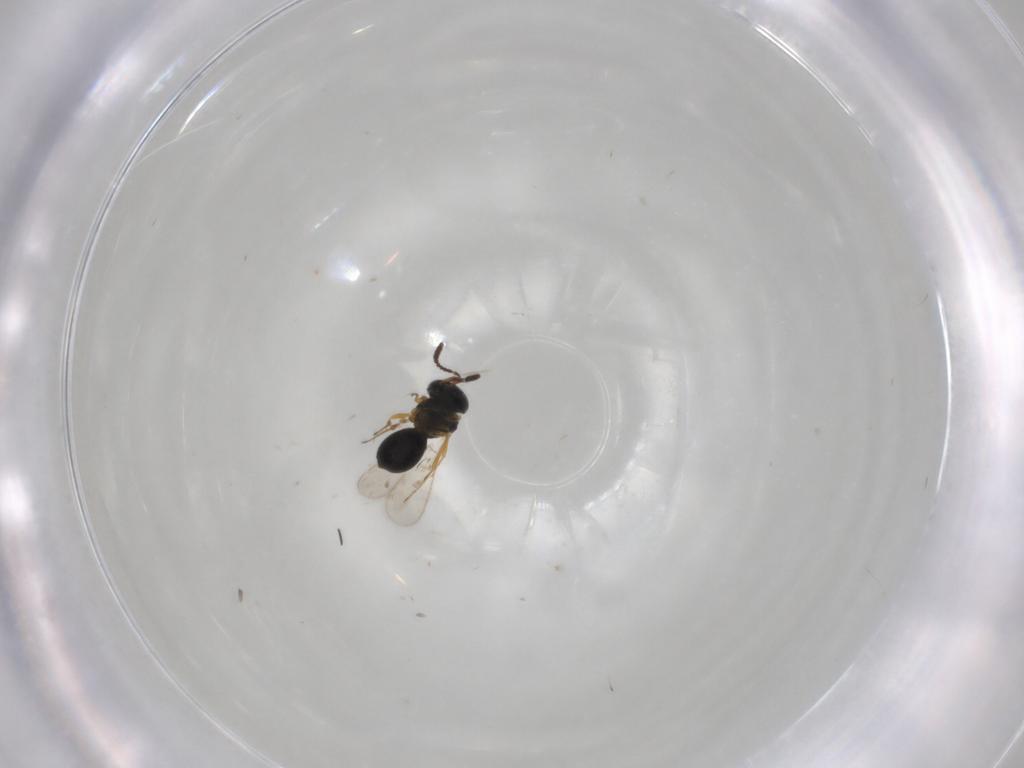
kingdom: Animalia
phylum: Arthropoda
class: Insecta
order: Hymenoptera
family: Scelionidae
